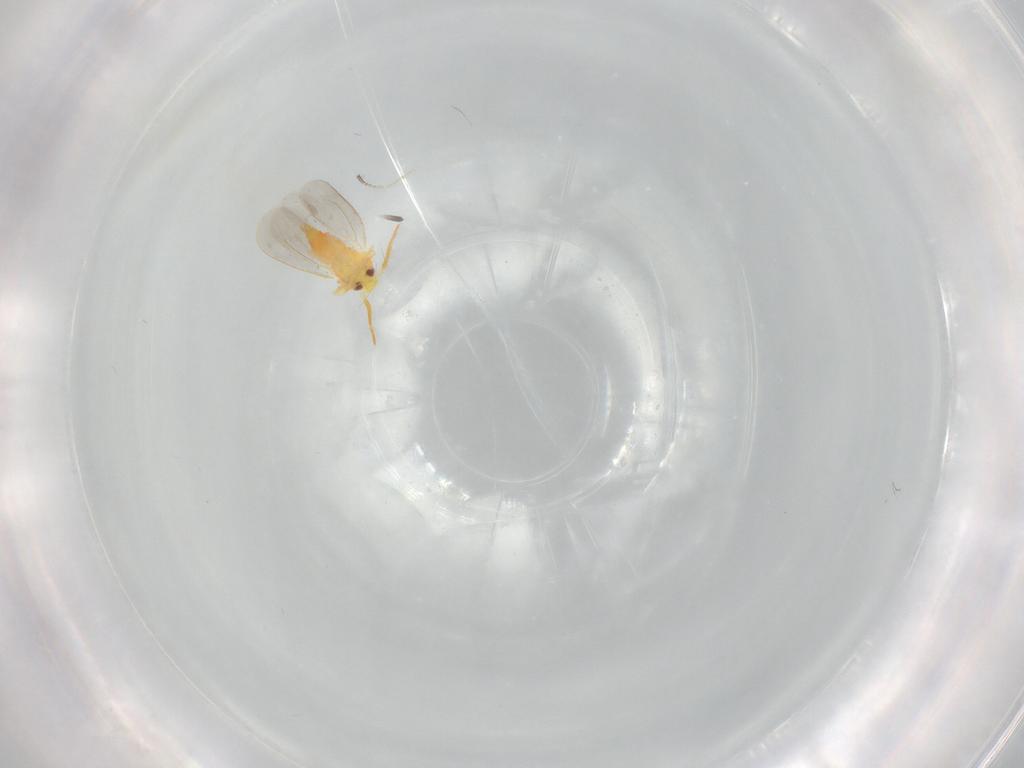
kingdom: Animalia
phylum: Arthropoda
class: Insecta
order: Hemiptera
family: Aleyrodidae
